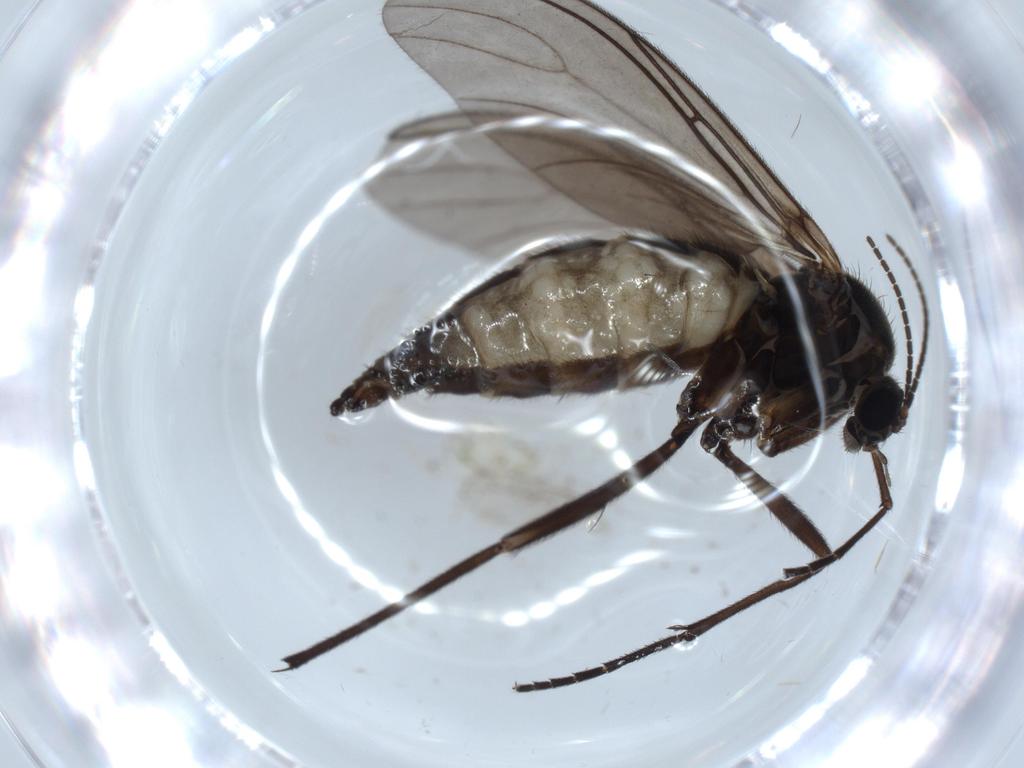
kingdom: Animalia
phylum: Arthropoda
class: Insecta
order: Diptera
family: Sciaridae
